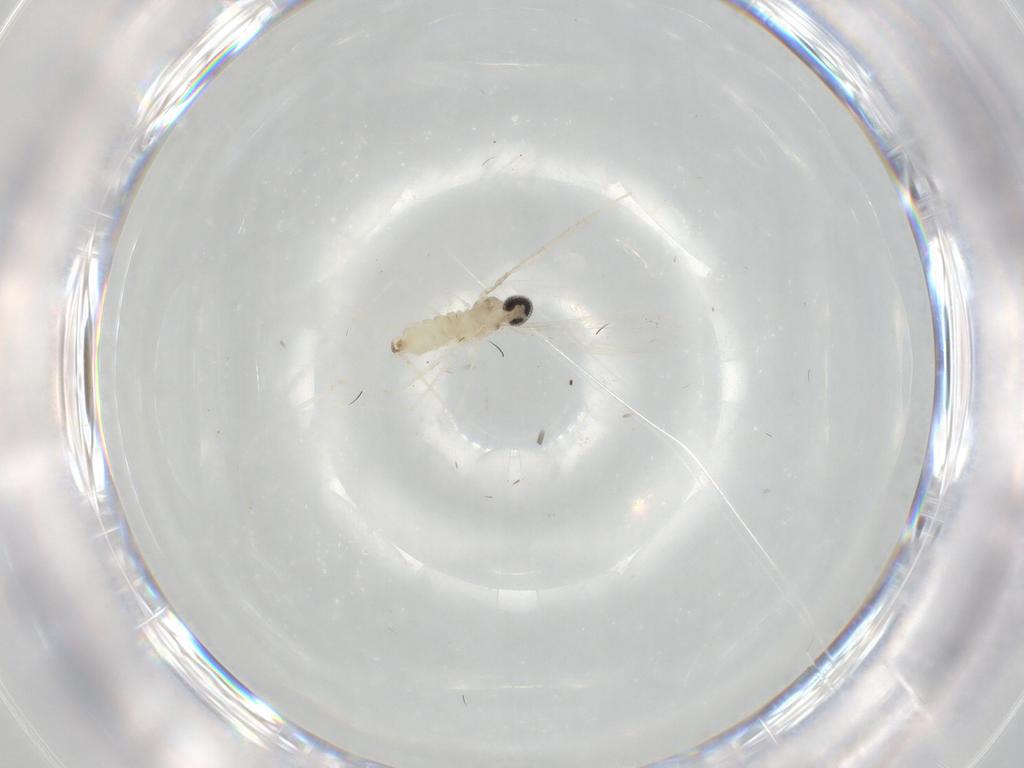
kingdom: Animalia
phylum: Arthropoda
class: Insecta
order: Diptera
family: Cecidomyiidae
